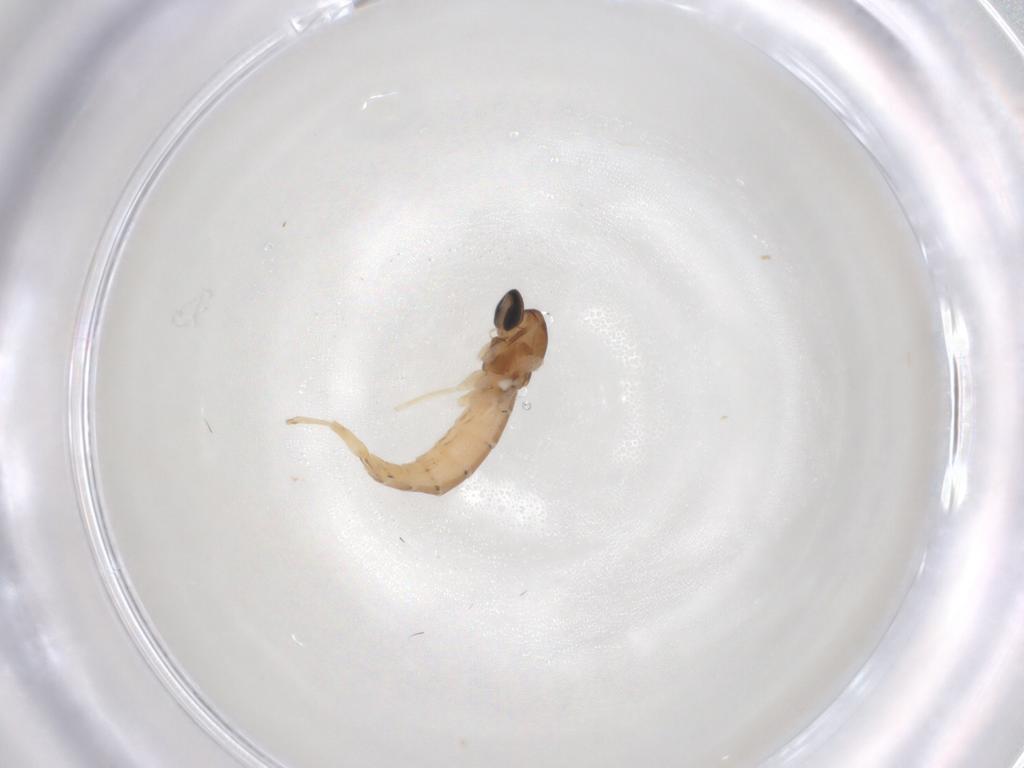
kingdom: Animalia
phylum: Arthropoda
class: Insecta
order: Diptera
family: Cecidomyiidae
